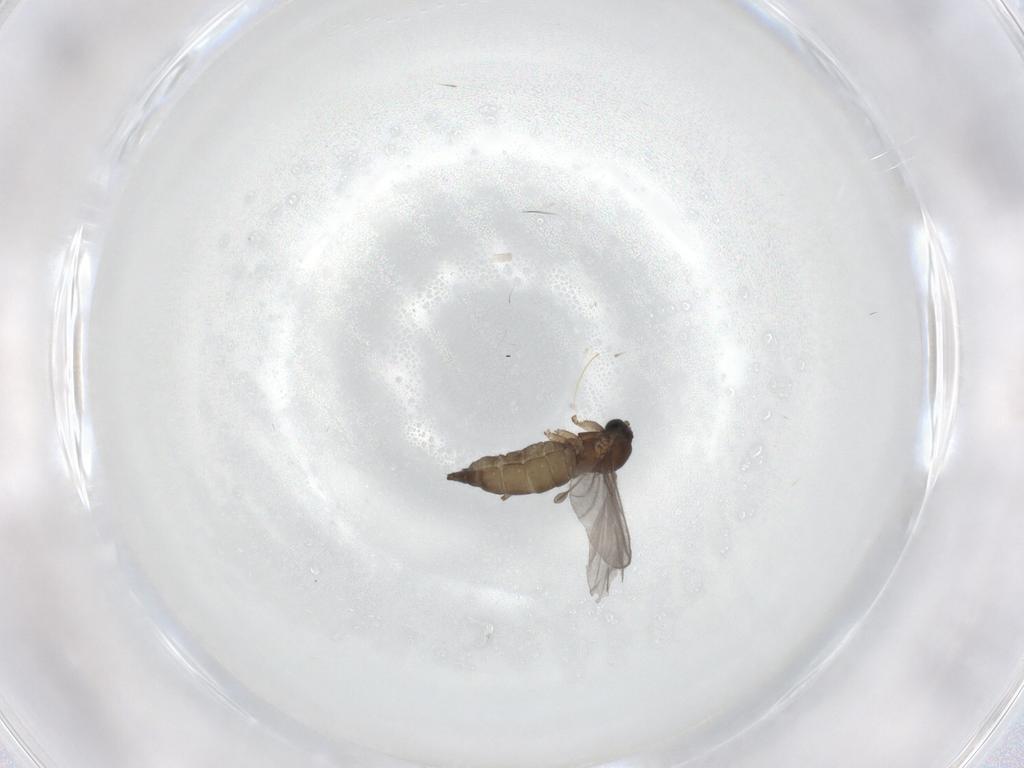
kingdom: Animalia
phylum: Arthropoda
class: Insecta
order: Diptera
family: Sciaridae
